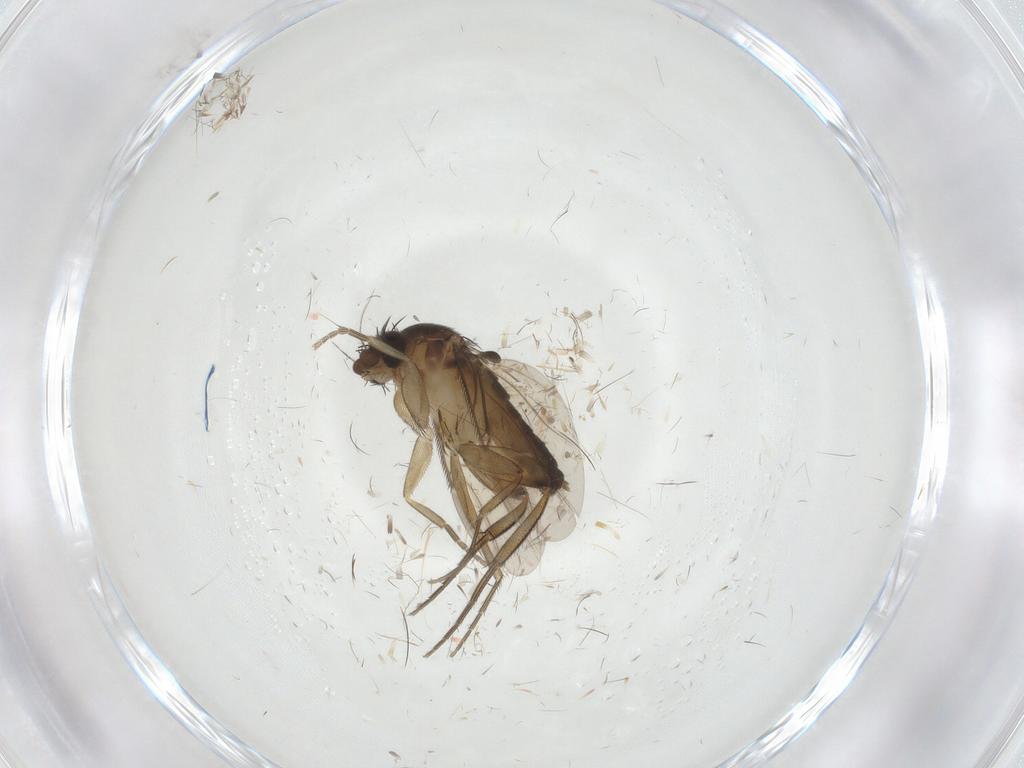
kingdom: Animalia
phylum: Arthropoda
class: Insecta
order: Diptera
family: Phoridae
